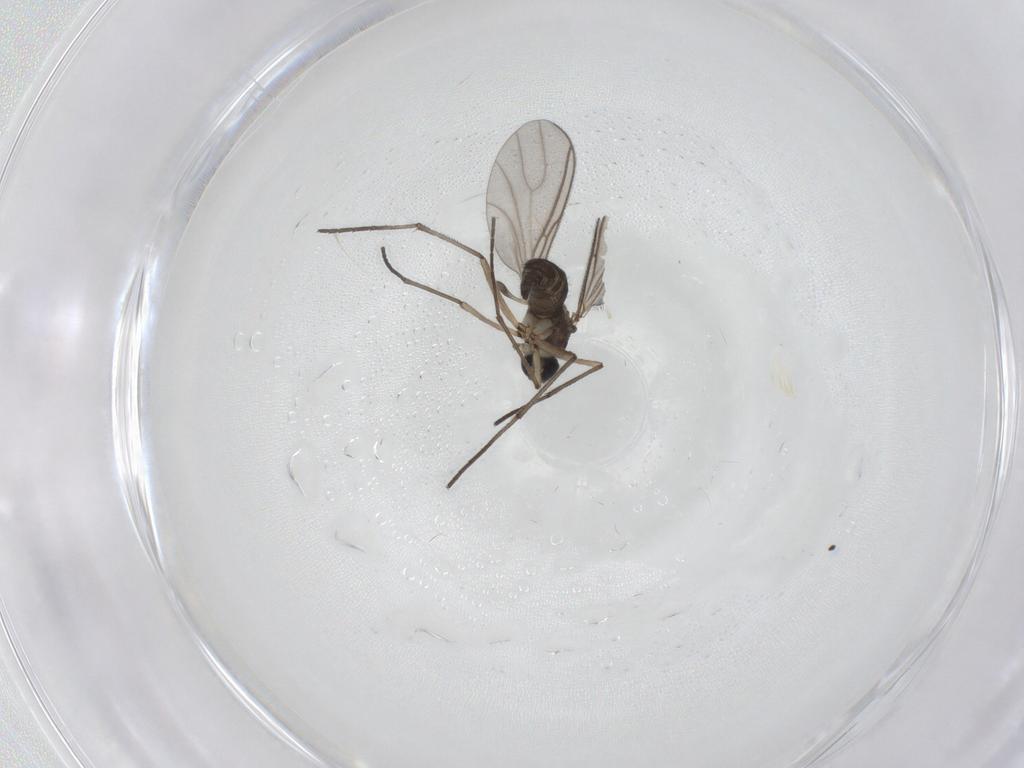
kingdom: Animalia
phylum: Arthropoda
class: Insecta
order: Diptera
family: Sciaridae
